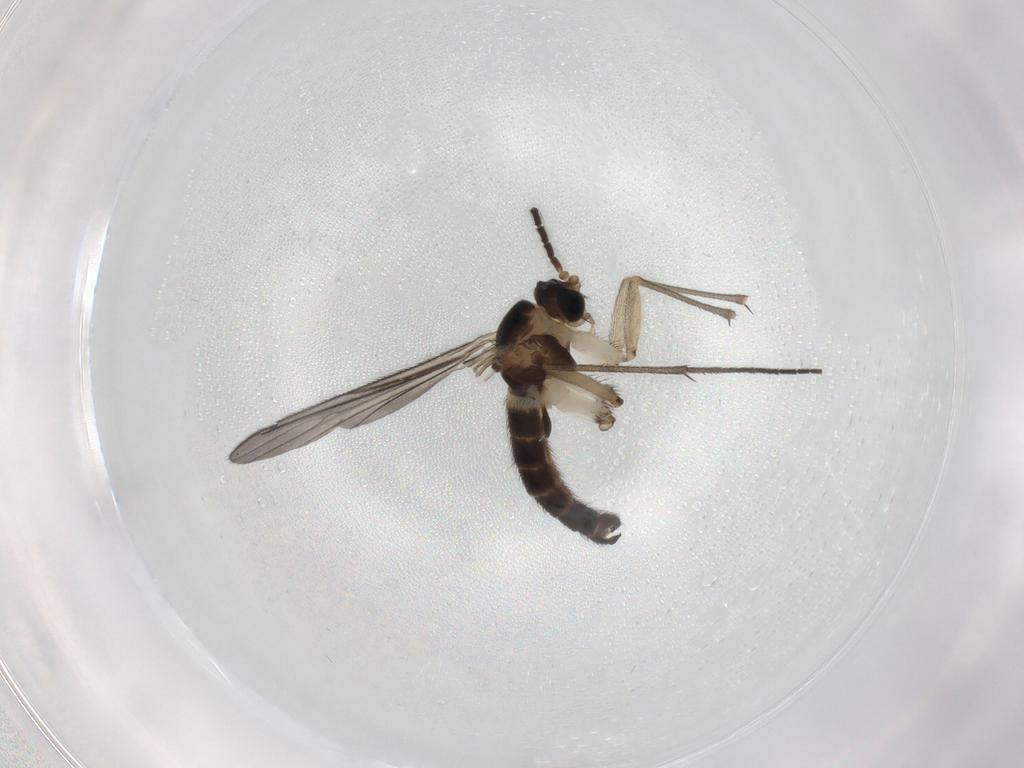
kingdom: Animalia
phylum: Arthropoda
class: Insecta
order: Diptera
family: Sciaridae
